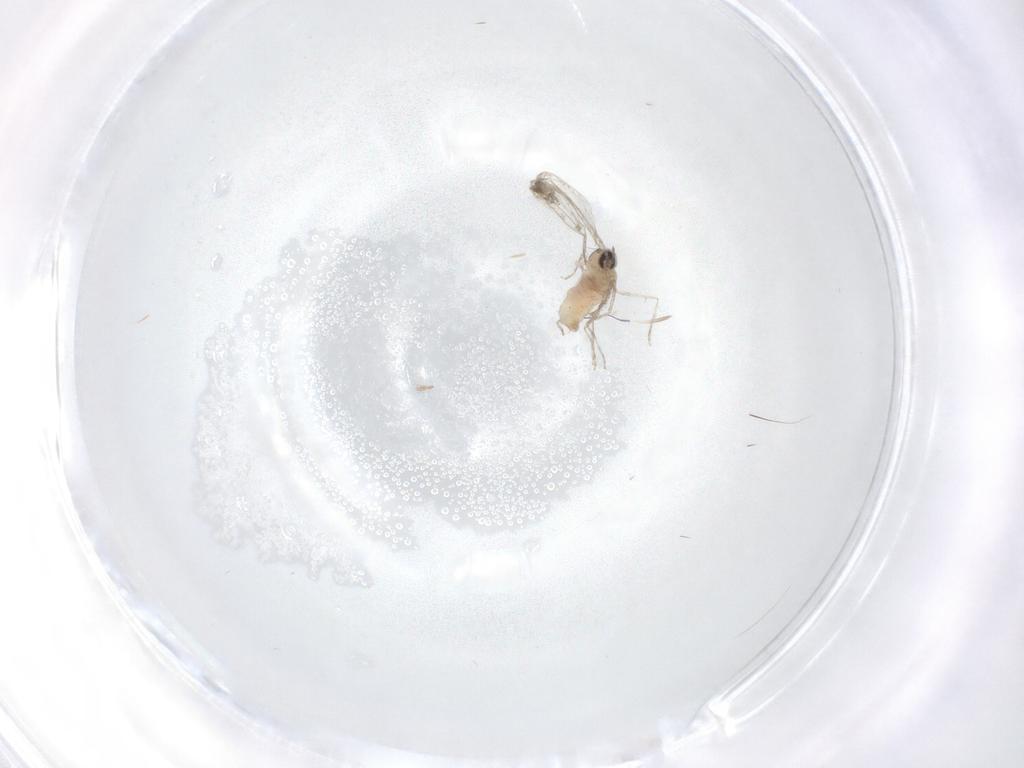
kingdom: Animalia
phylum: Arthropoda
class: Insecta
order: Diptera
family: Cecidomyiidae
